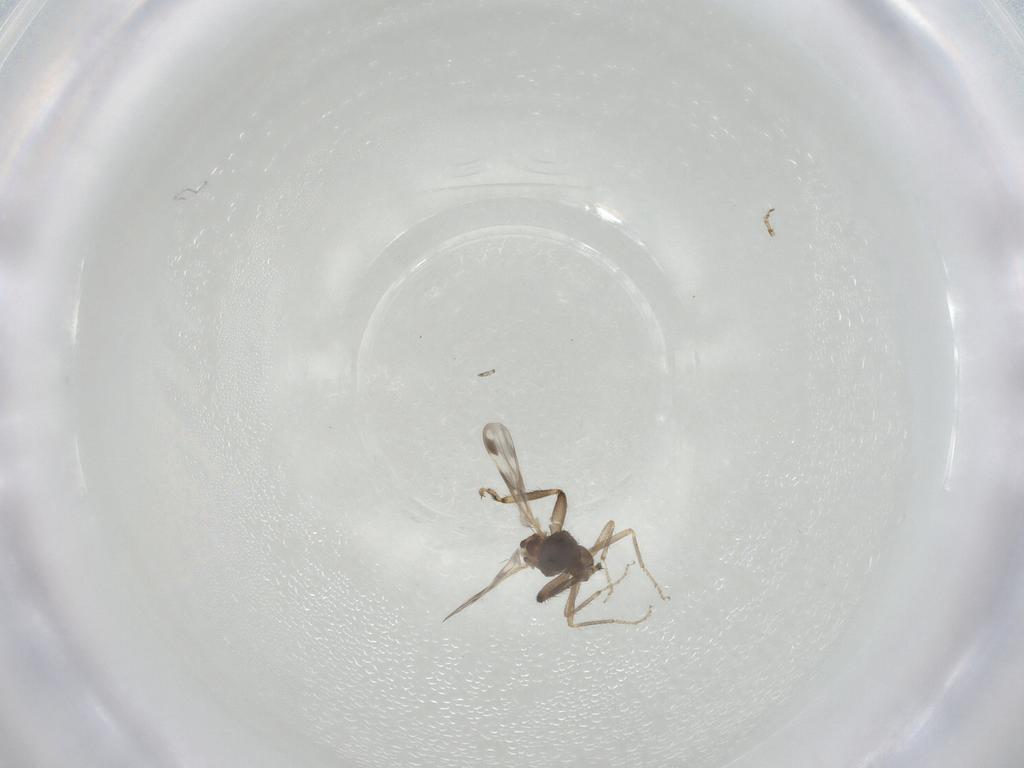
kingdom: Animalia
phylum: Arthropoda
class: Insecta
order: Diptera
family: Ceratopogonidae
